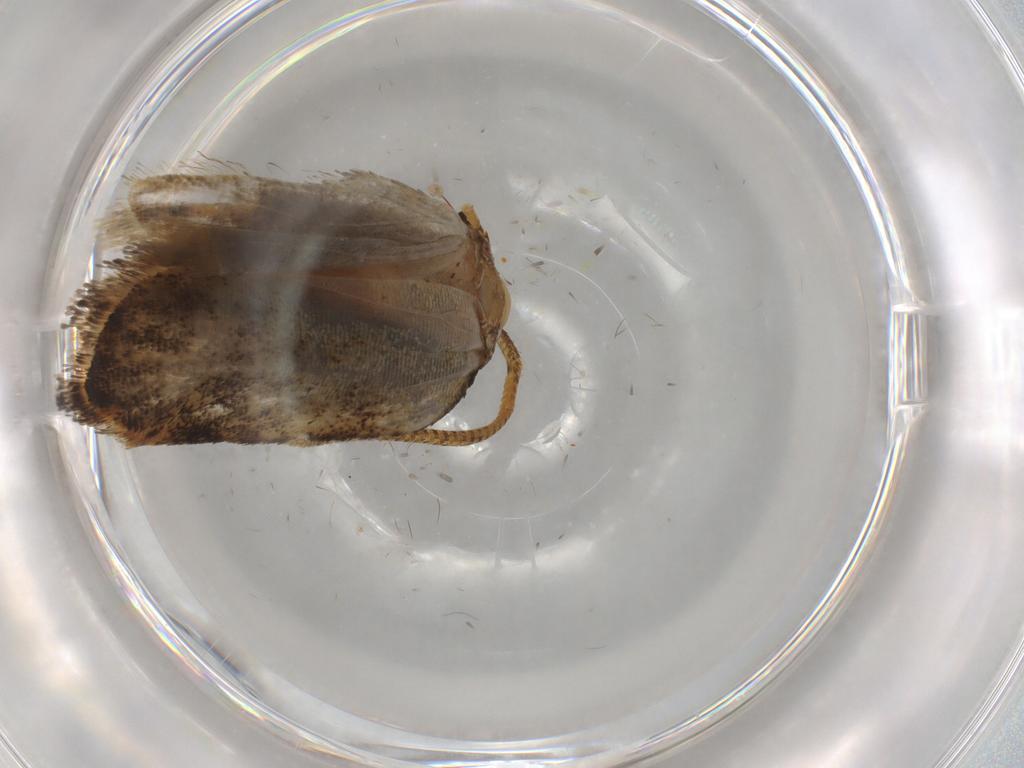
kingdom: Animalia
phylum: Arthropoda
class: Insecta
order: Lepidoptera
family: Autostichidae
